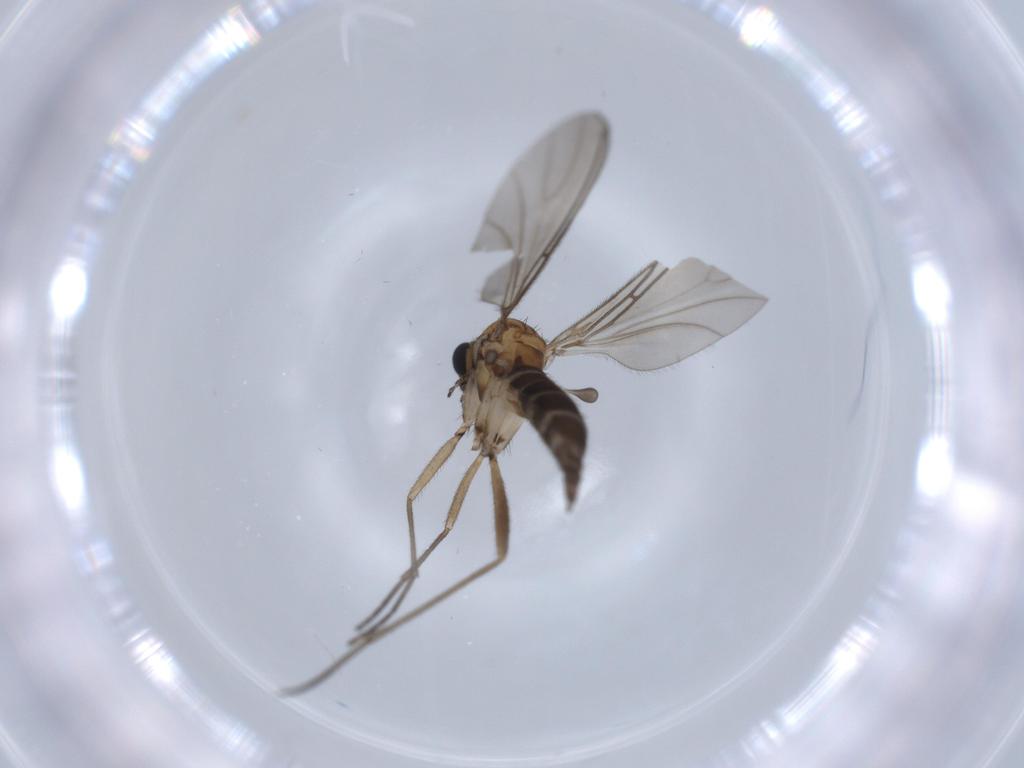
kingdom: Animalia
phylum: Arthropoda
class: Insecta
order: Diptera
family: Sciaridae
